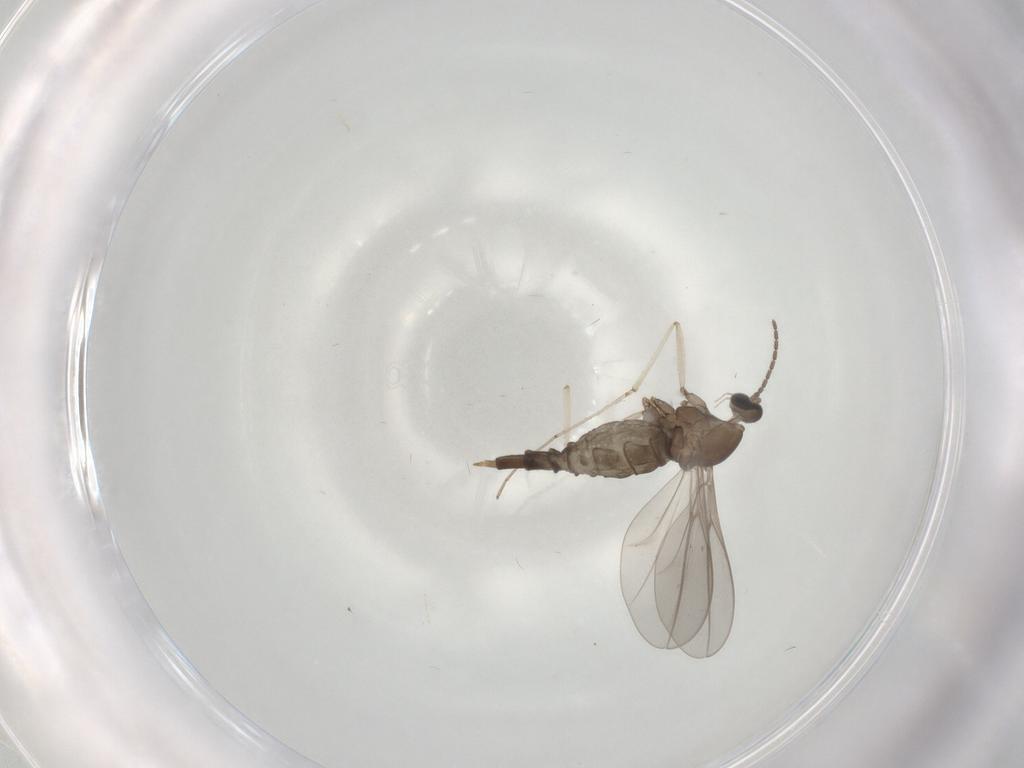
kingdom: Animalia
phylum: Arthropoda
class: Insecta
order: Diptera
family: Cecidomyiidae
